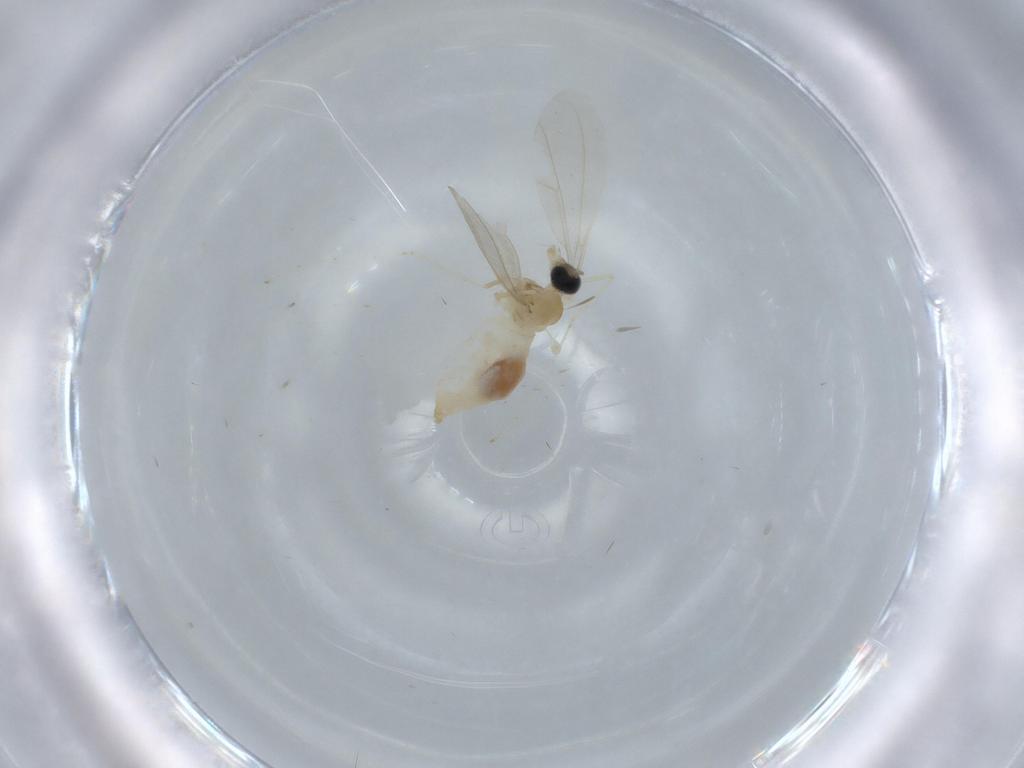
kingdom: Animalia
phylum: Arthropoda
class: Insecta
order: Diptera
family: Cecidomyiidae
